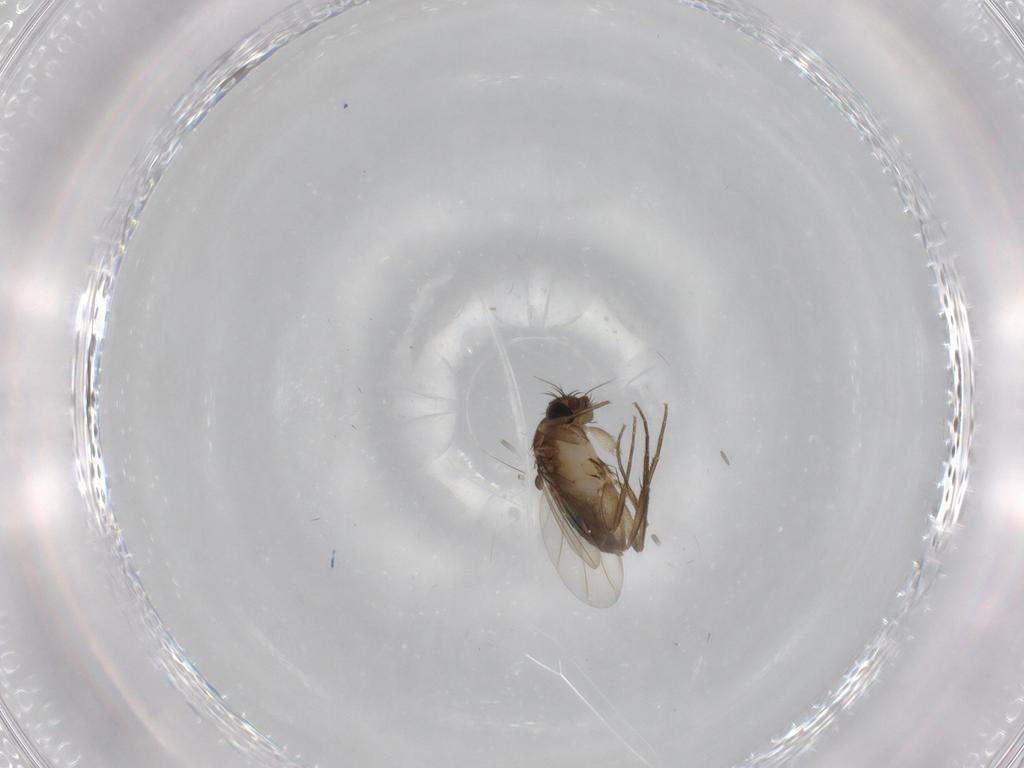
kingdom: Animalia
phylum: Arthropoda
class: Insecta
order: Diptera
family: Phoridae
